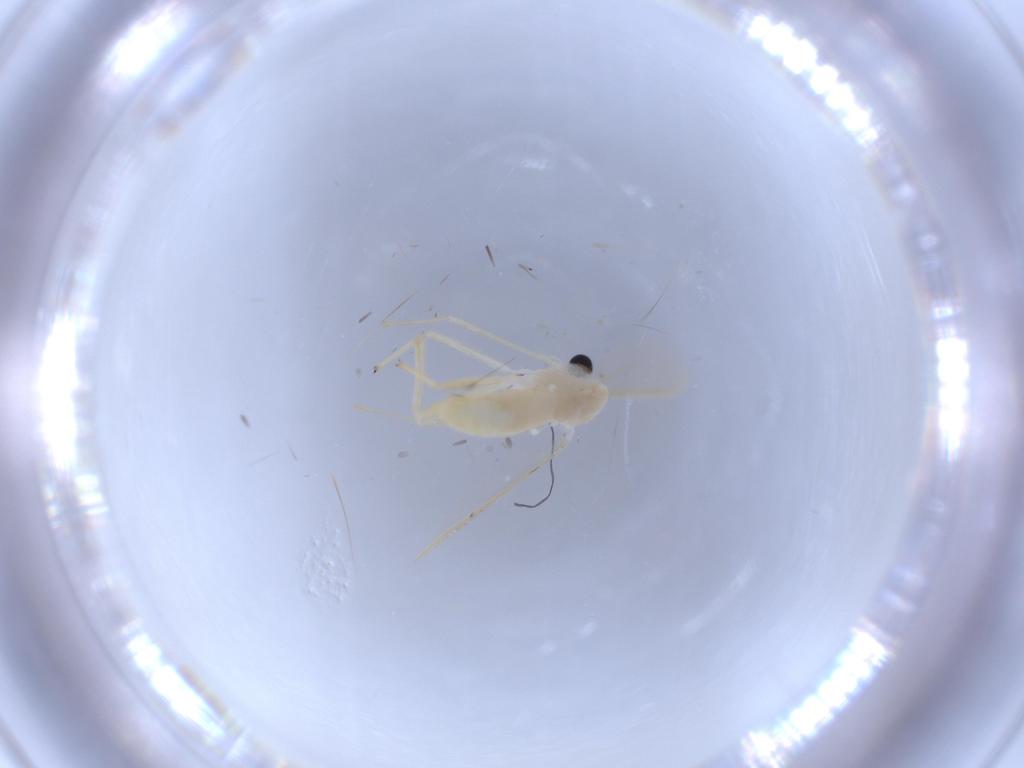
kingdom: Animalia
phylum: Arthropoda
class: Insecta
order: Diptera
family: Chironomidae
